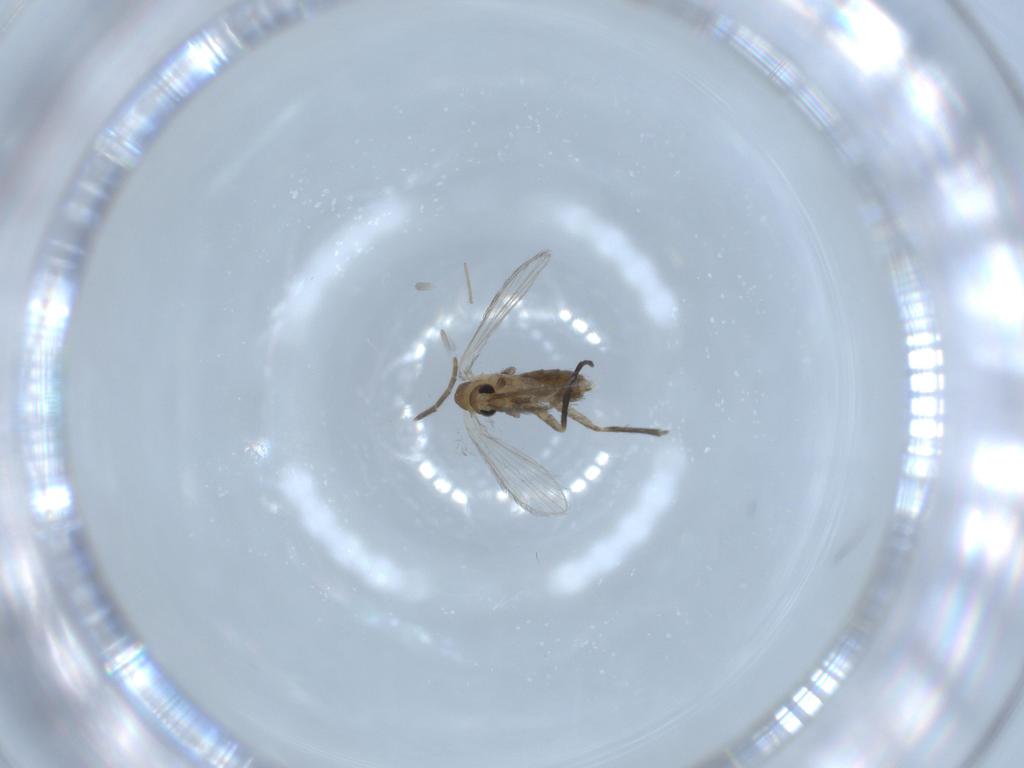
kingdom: Animalia
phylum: Arthropoda
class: Insecta
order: Diptera
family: Psychodidae
